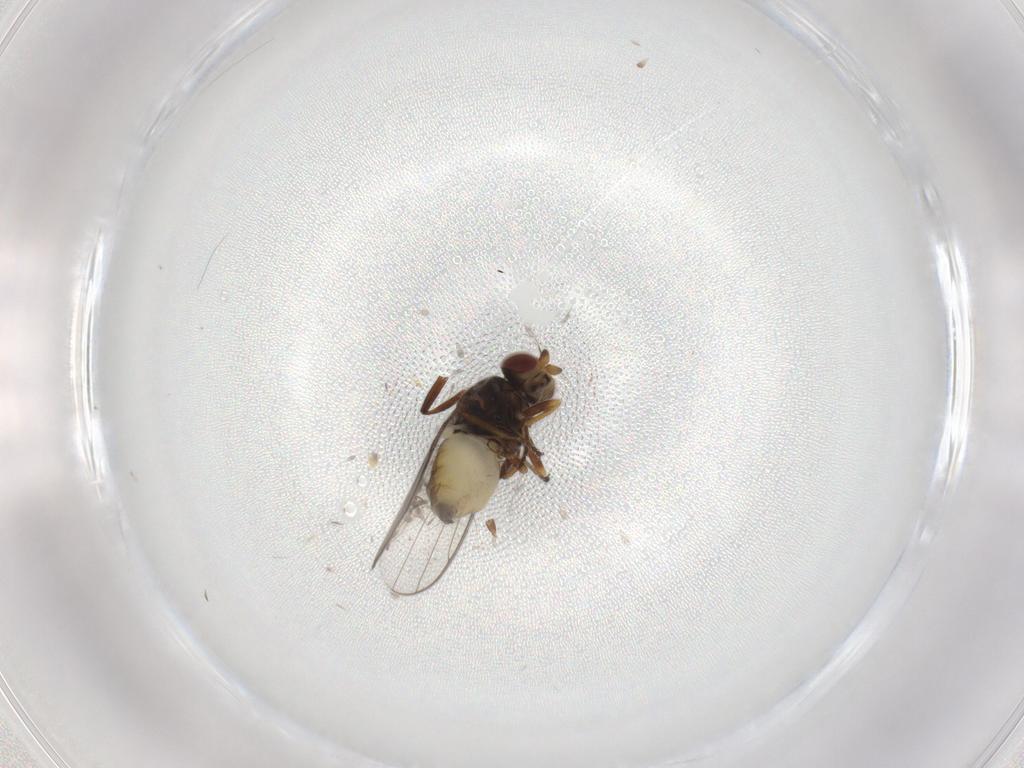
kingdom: Animalia
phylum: Arthropoda
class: Insecta
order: Diptera
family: Chloropidae
